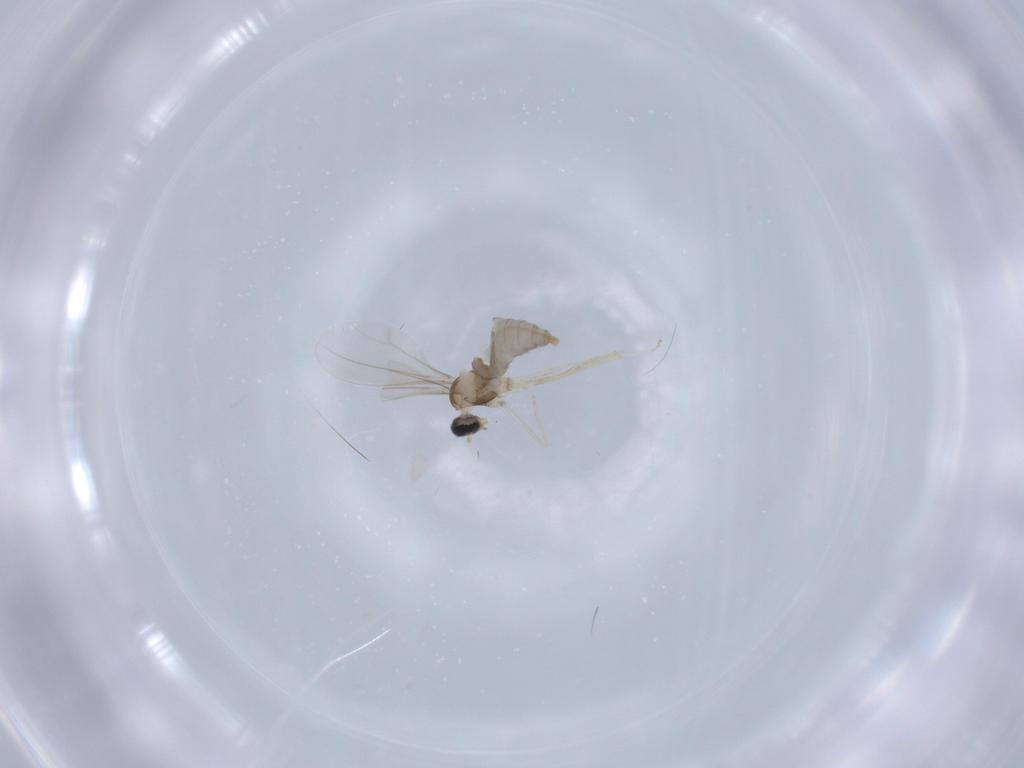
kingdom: Animalia
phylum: Arthropoda
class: Insecta
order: Diptera
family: Cecidomyiidae
